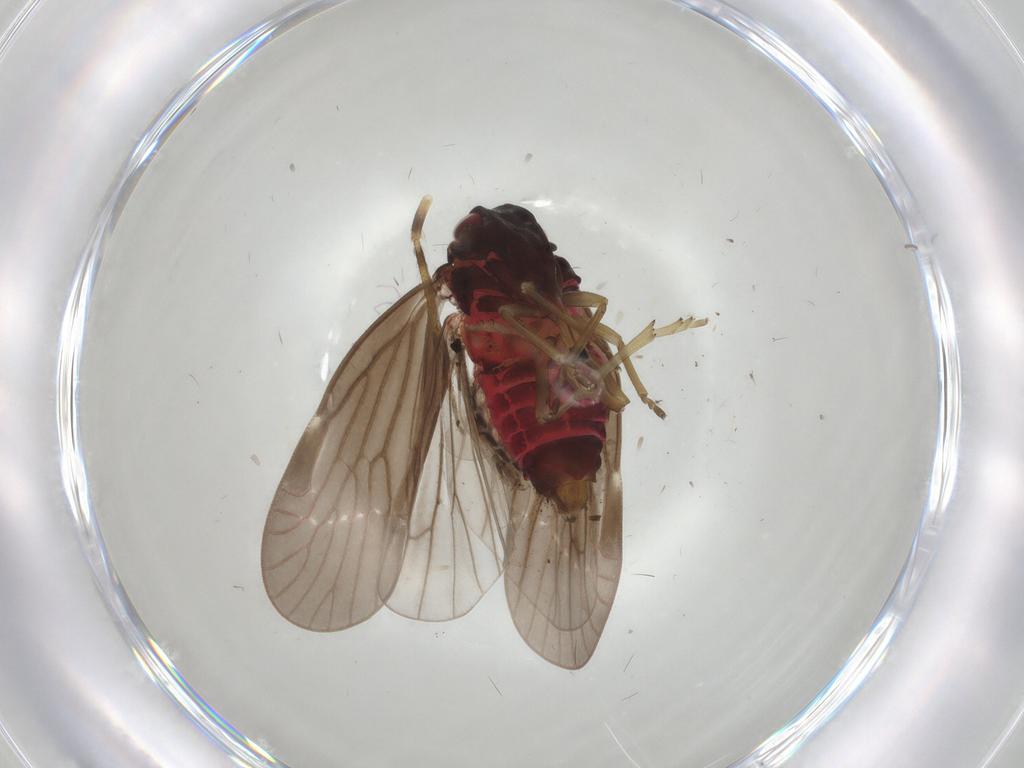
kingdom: Animalia
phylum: Arthropoda
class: Insecta
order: Hemiptera
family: Derbidae
